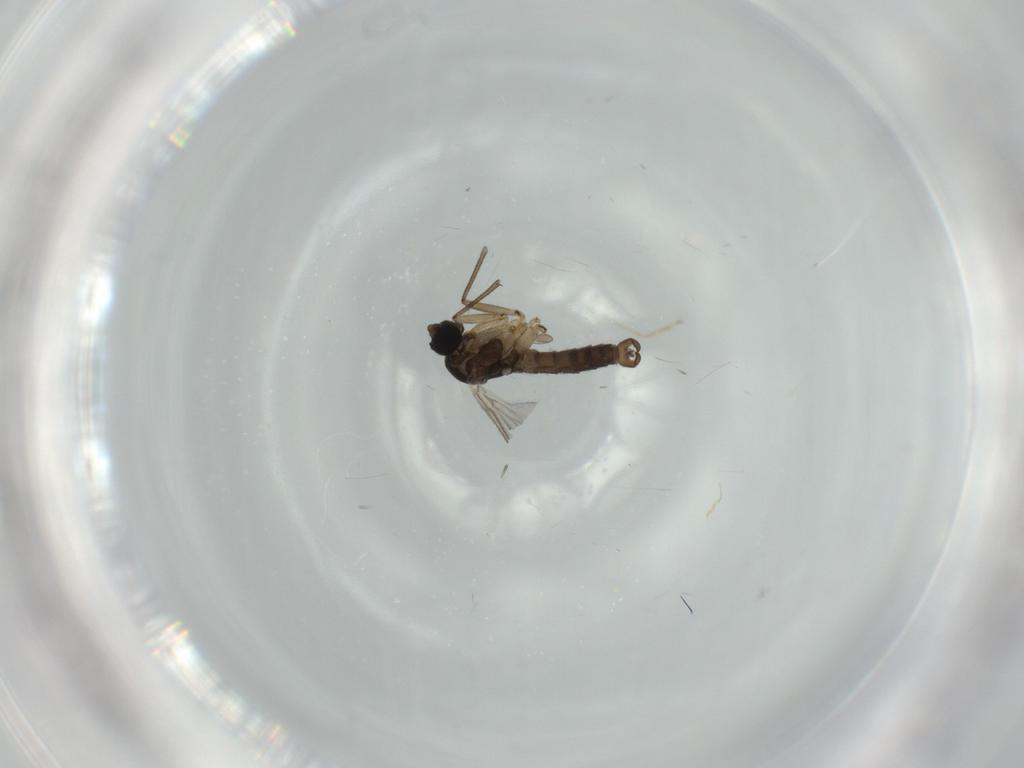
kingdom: Animalia
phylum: Arthropoda
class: Insecta
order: Diptera
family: Sciaridae
